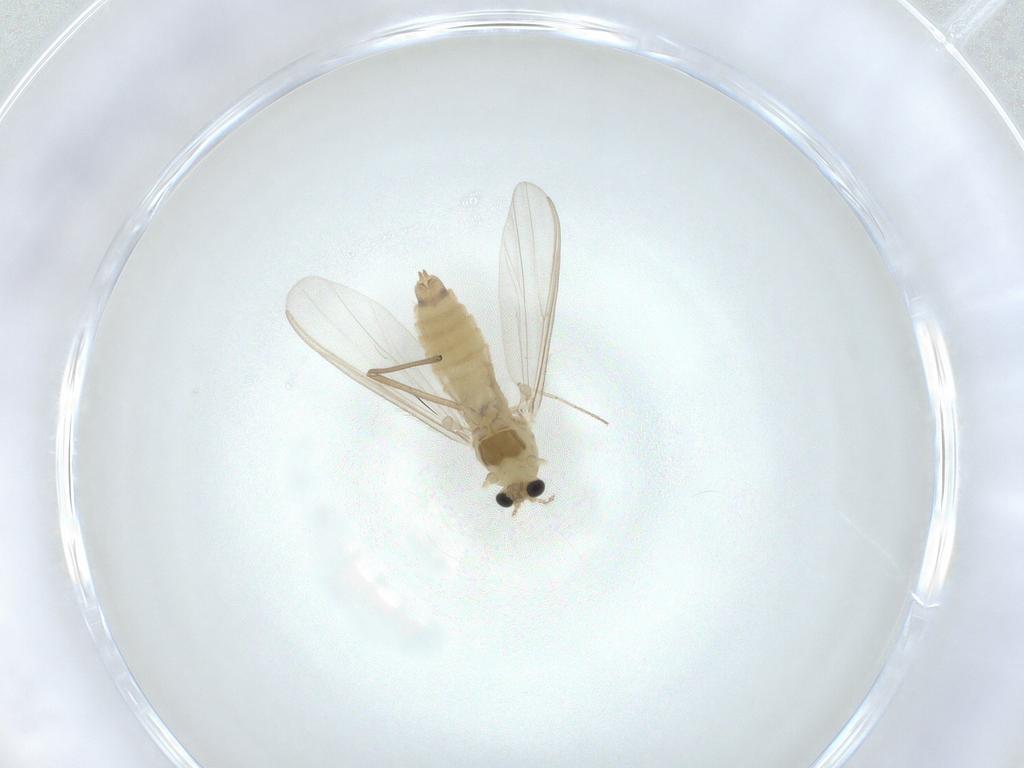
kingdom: Animalia
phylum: Arthropoda
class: Insecta
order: Diptera
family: Chironomidae
